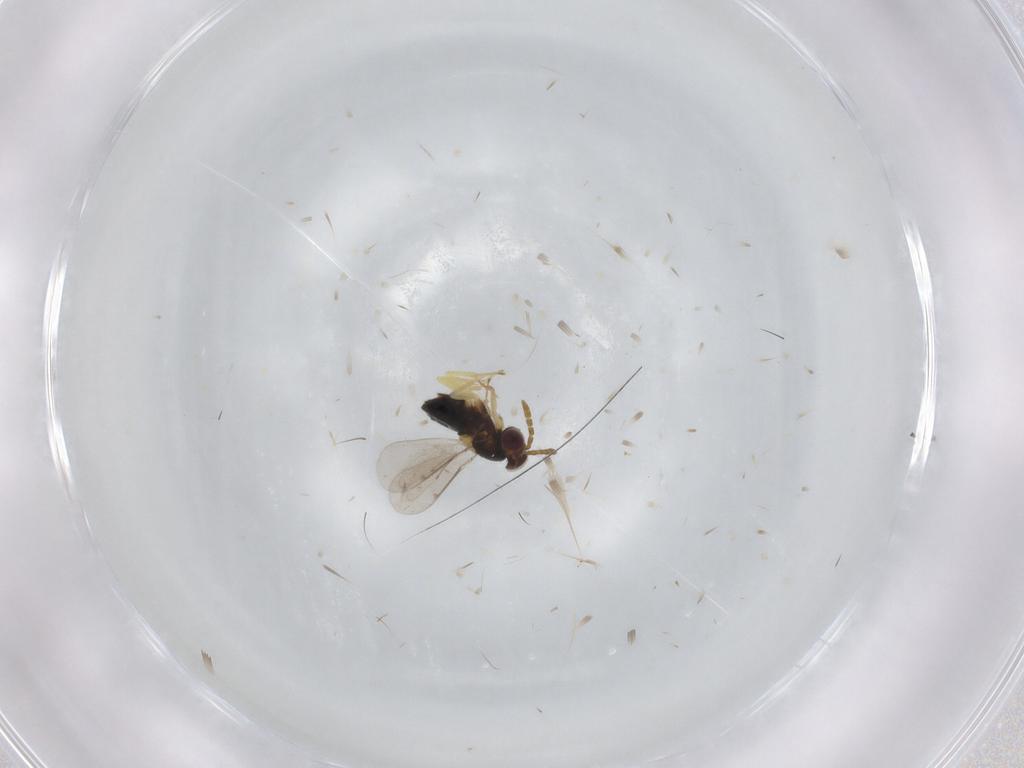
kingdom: Animalia
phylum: Arthropoda
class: Insecta
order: Hymenoptera
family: Aphelinidae
